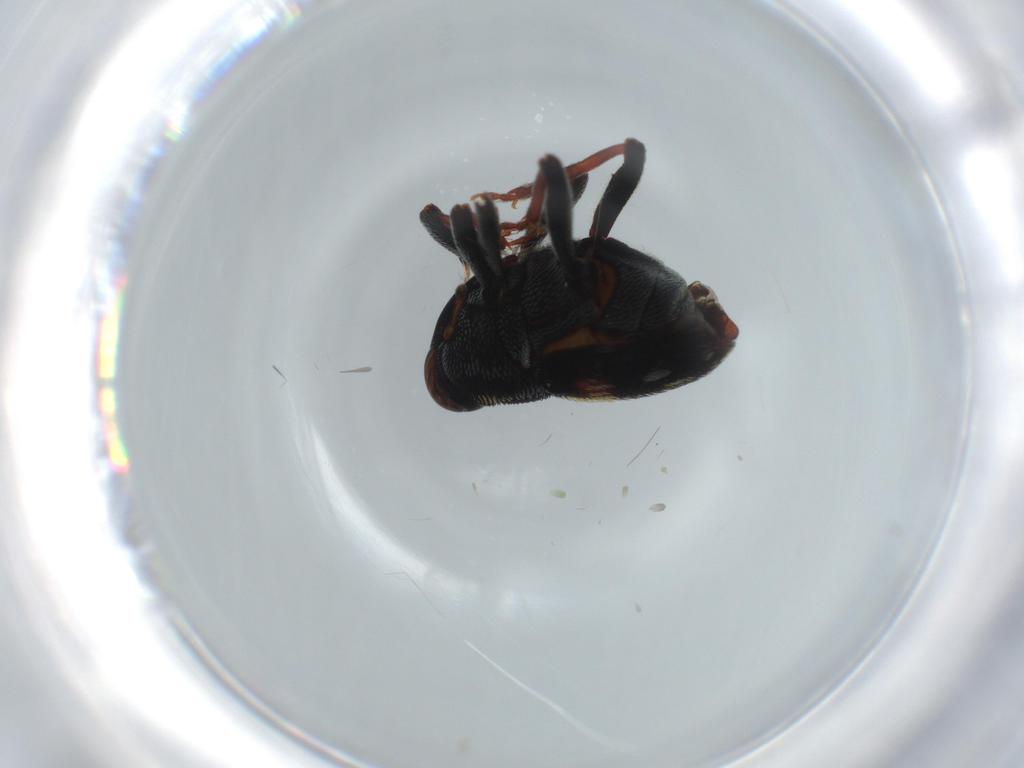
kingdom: Animalia
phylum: Arthropoda
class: Insecta
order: Coleoptera
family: Curculionidae
